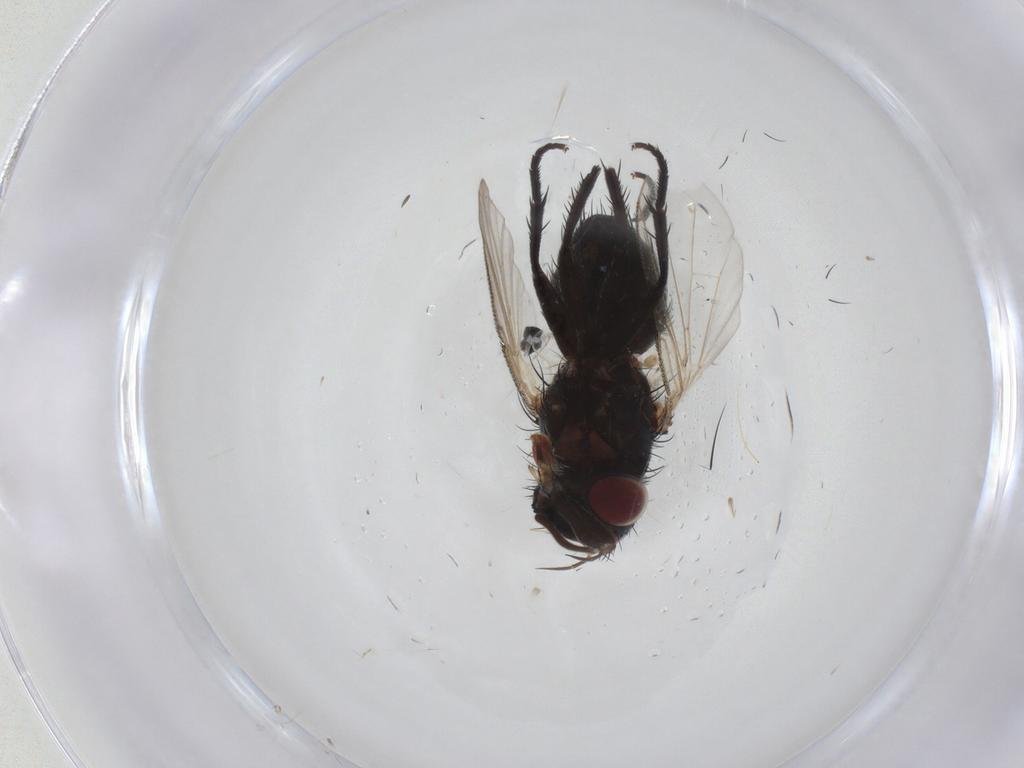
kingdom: Animalia
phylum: Arthropoda
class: Insecta
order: Diptera
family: Tachinidae
